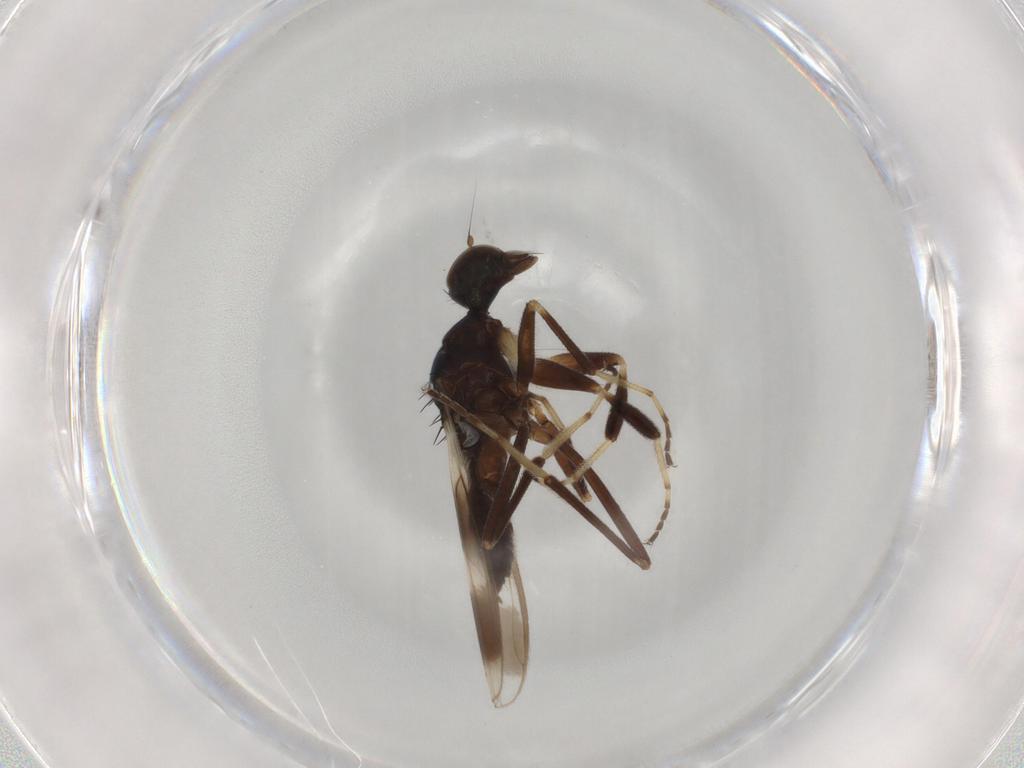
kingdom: Animalia
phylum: Arthropoda
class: Insecta
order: Diptera
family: Hybotidae
